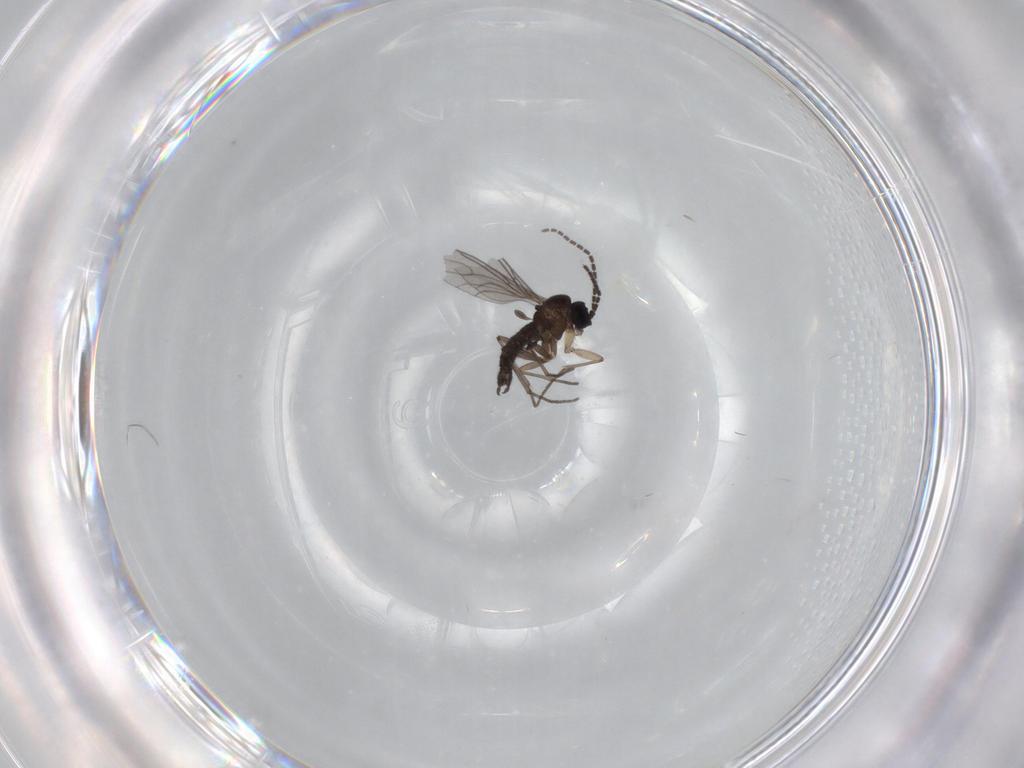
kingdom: Animalia
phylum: Arthropoda
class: Insecta
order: Diptera
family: Sciaridae
